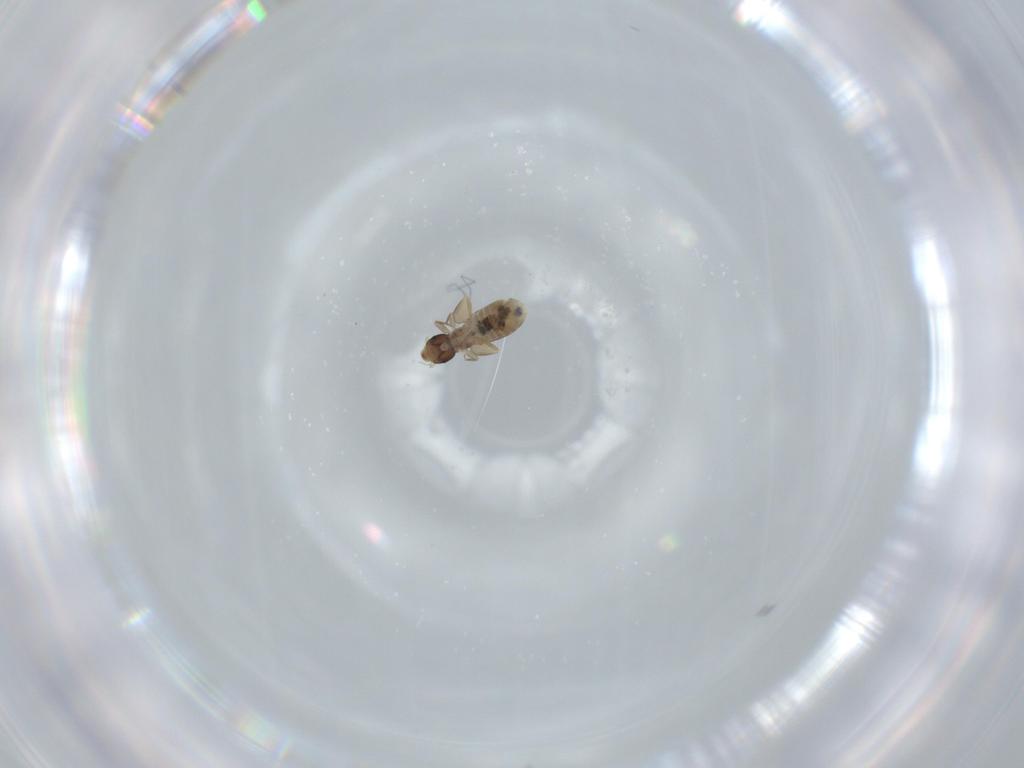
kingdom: Animalia
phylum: Arthropoda
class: Insecta
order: Psocodea
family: Liposcelididae
